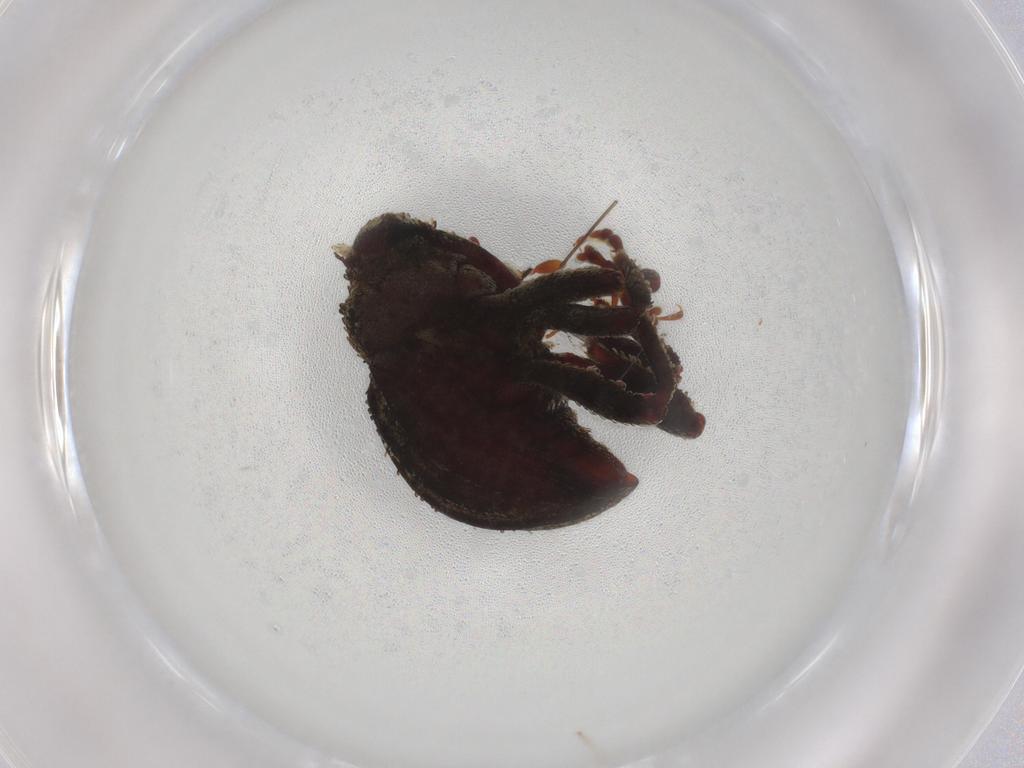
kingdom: Animalia
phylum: Arthropoda
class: Insecta
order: Coleoptera
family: Curculionidae
